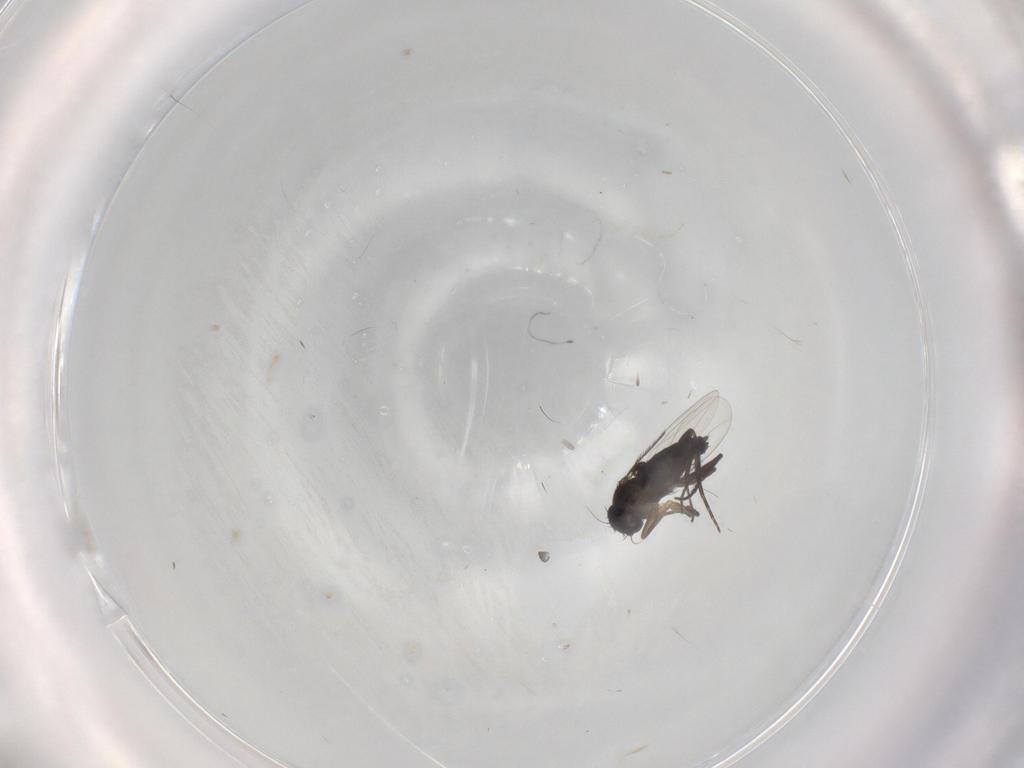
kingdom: Animalia
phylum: Arthropoda
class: Insecta
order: Diptera
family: Phoridae
